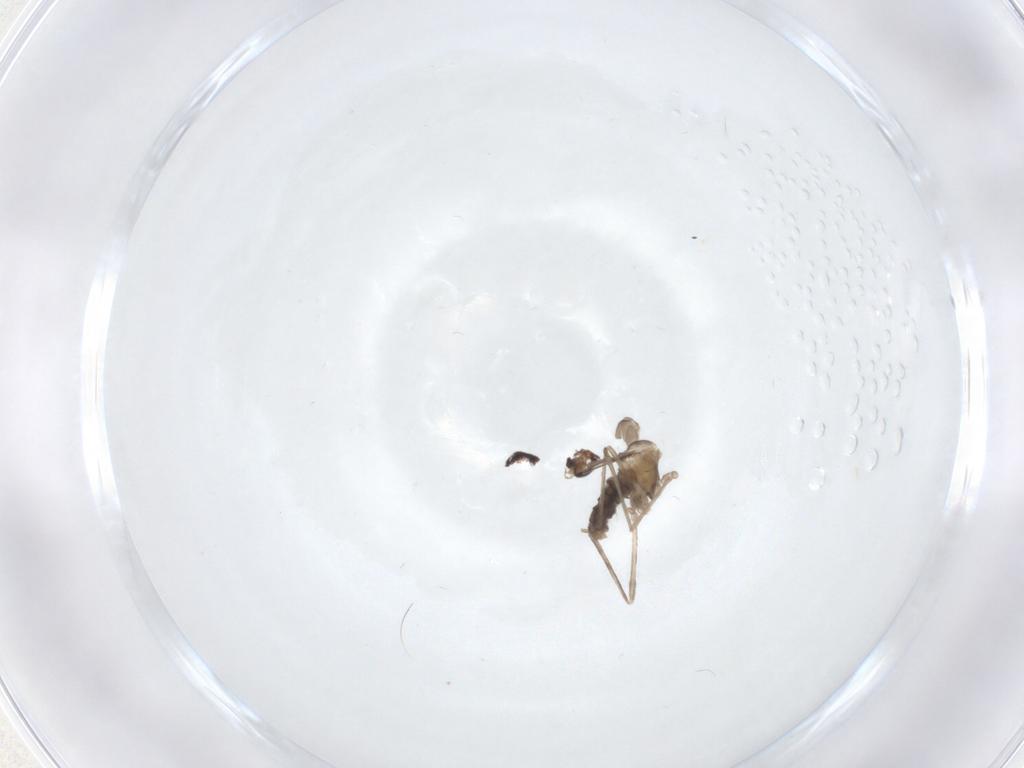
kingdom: Animalia
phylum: Arthropoda
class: Insecta
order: Diptera
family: Cecidomyiidae
